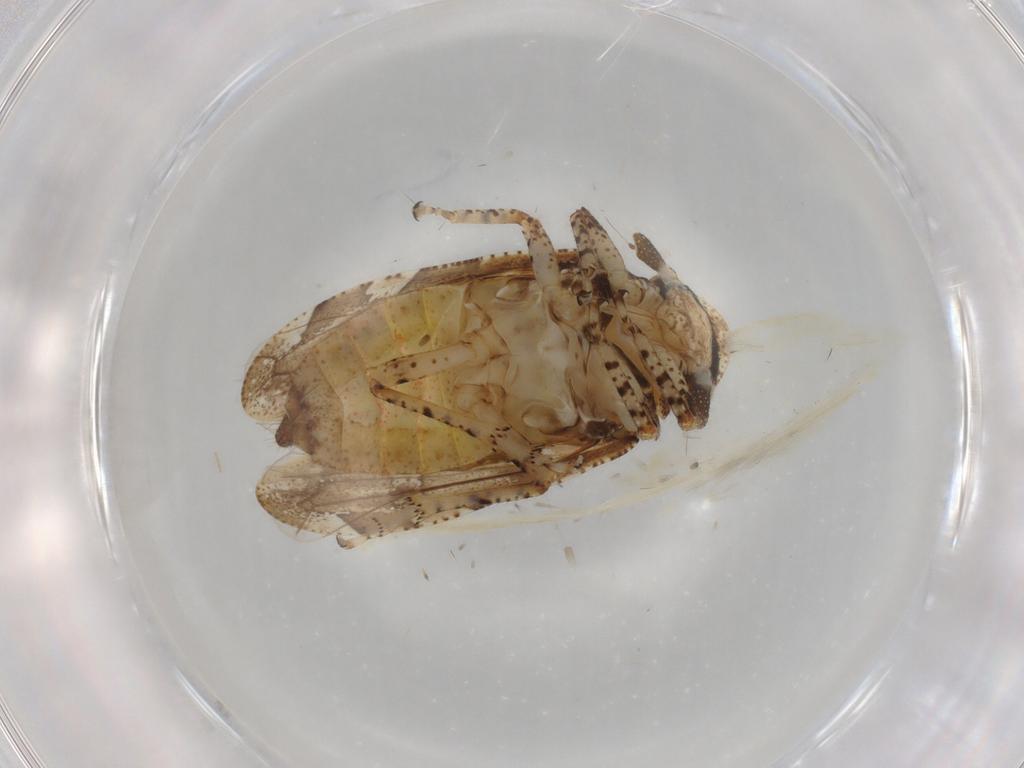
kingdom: Animalia
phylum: Arthropoda
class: Insecta
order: Hemiptera
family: Tettigometridae
